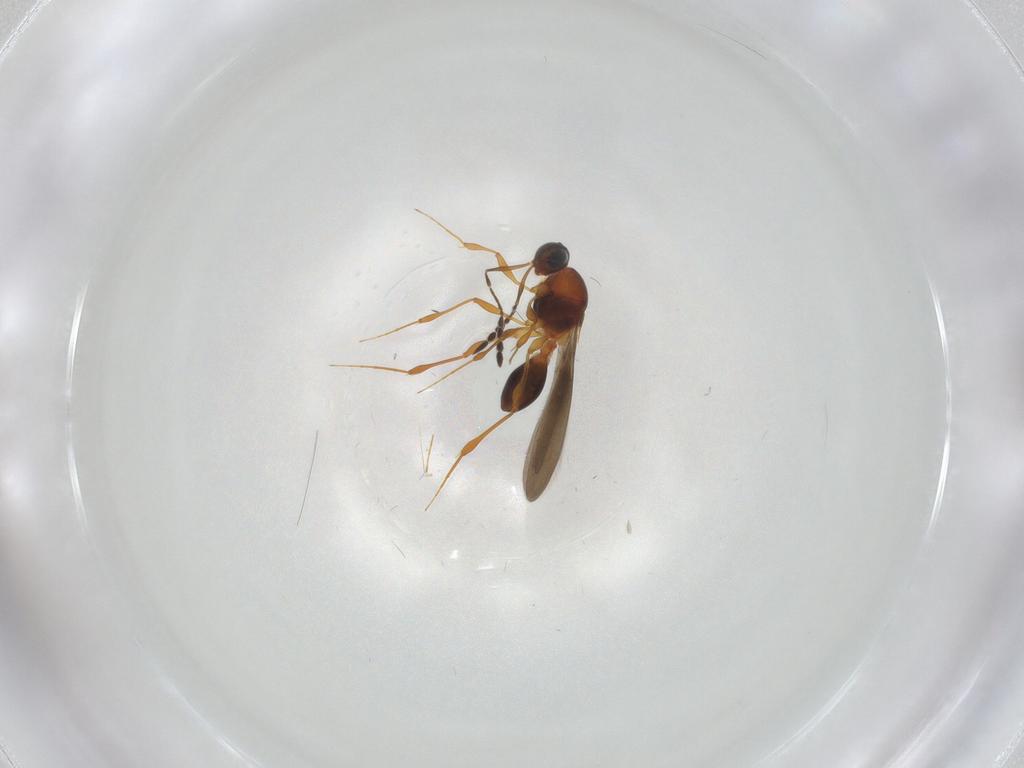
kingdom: Animalia
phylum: Arthropoda
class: Insecta
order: Hymenoptera
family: Platygastridae
